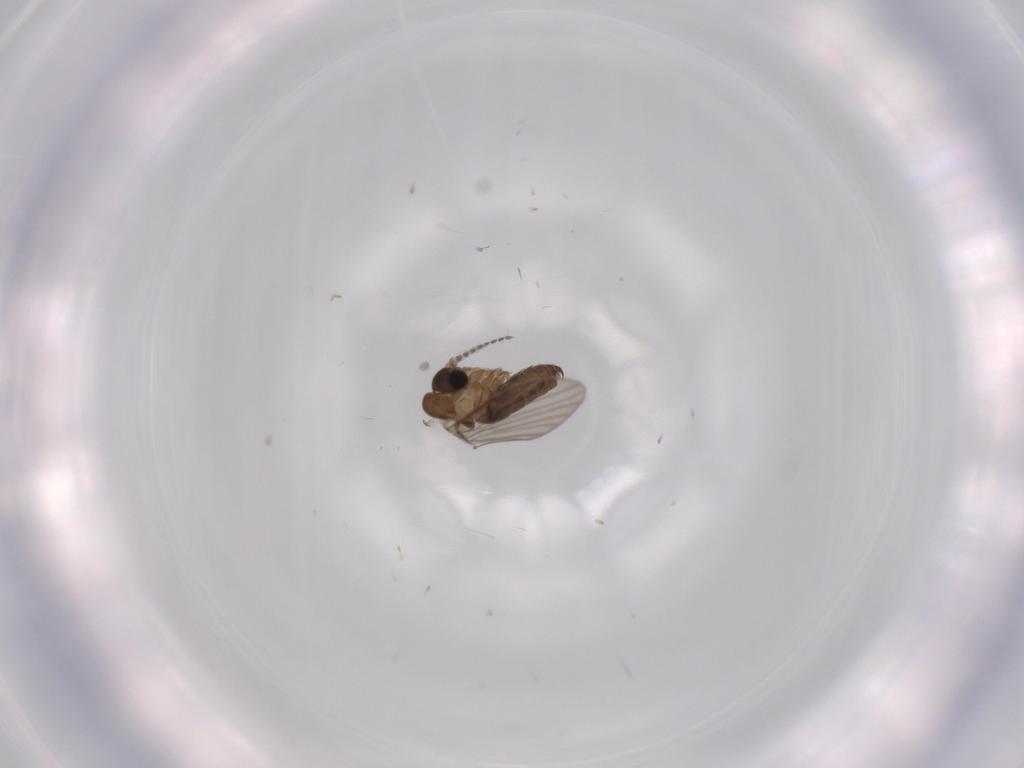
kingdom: Animalia
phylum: Arthropoda
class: Insecta
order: Diptera
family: Psychodidae
